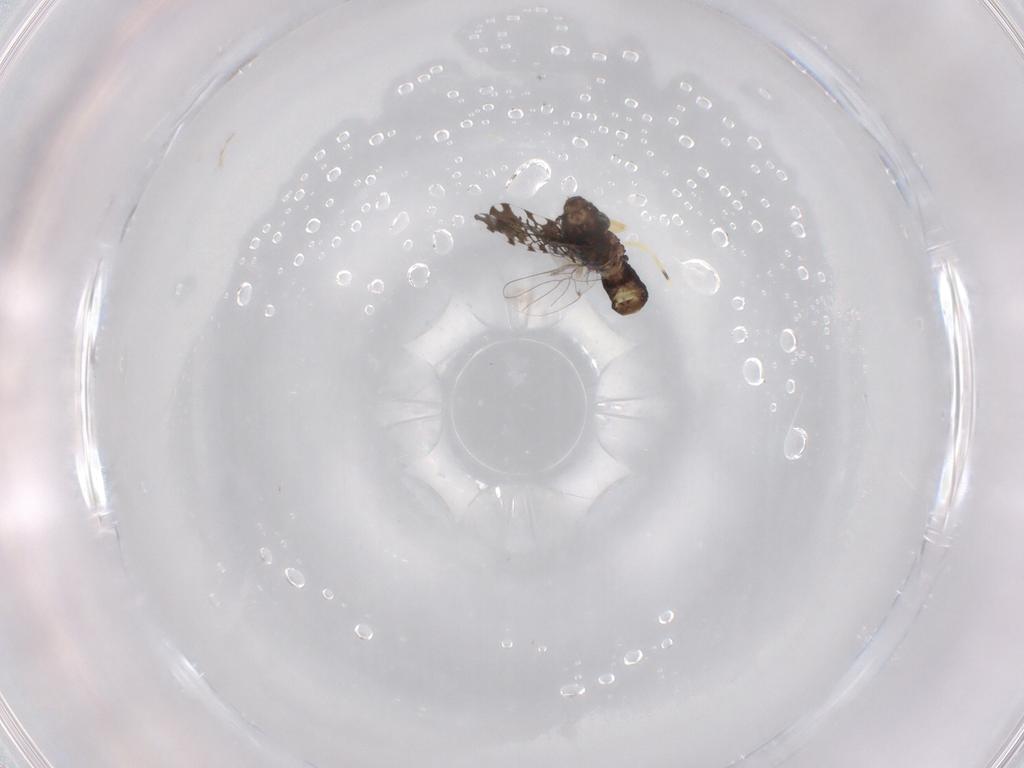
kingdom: Animalia
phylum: Arthropoda
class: Insecta
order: Psocodea
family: Psoquillidae
